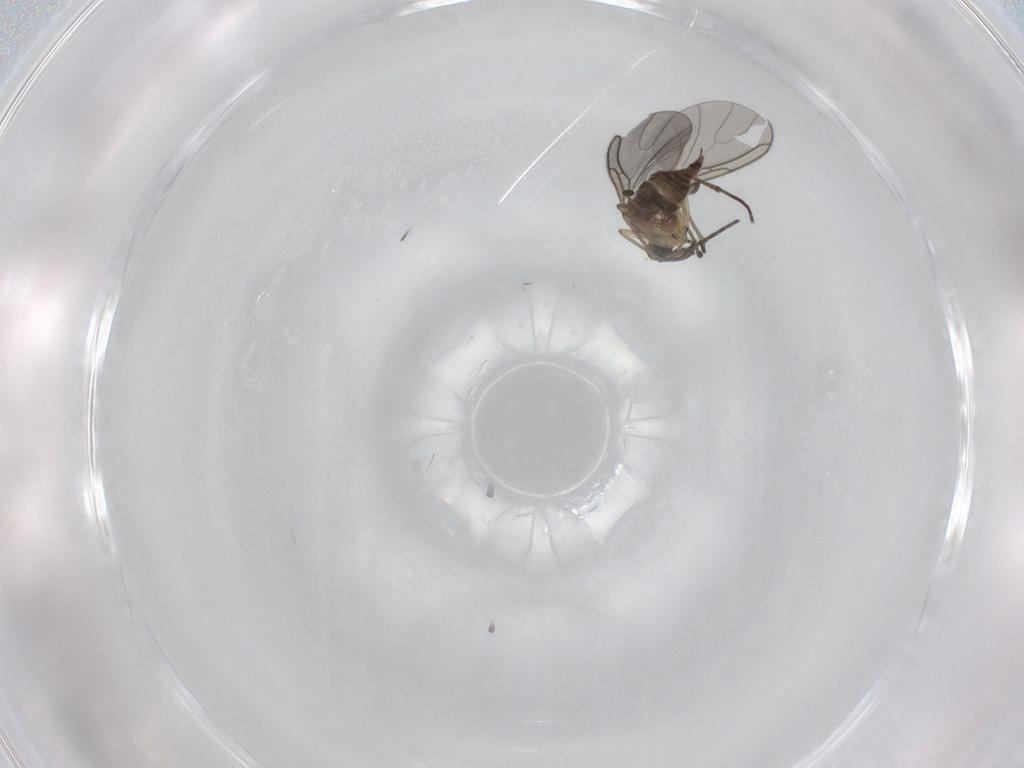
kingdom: Animalia
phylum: Arthropoda
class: Insecta
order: Diptera
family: Sciaridae
